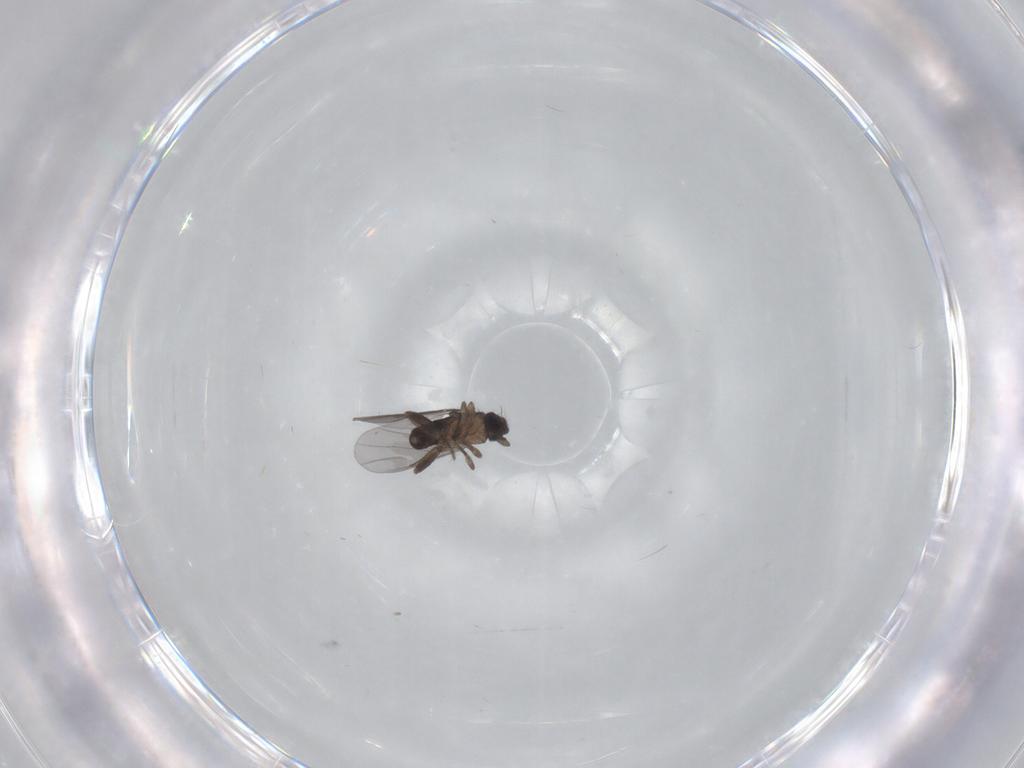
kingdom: Animalia
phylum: Arthropoda
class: Insecta
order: Diptera
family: Phoridae
